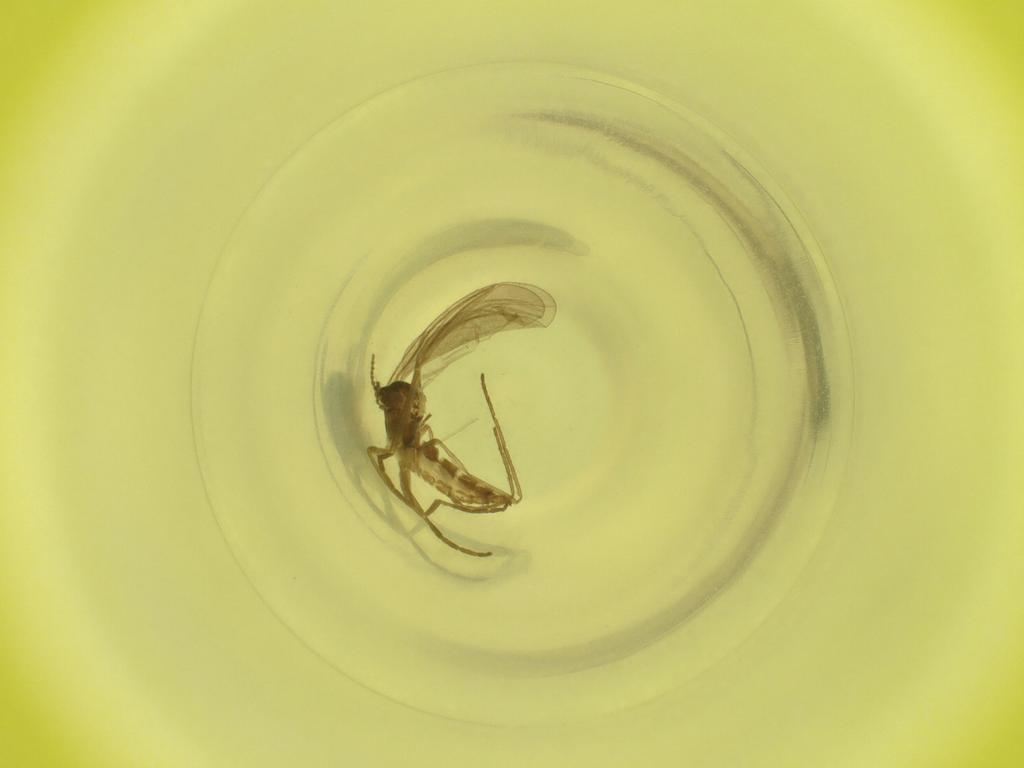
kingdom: Animalia
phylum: Arthropoda
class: Insecta
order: Diptera
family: Cecidomyiidae
